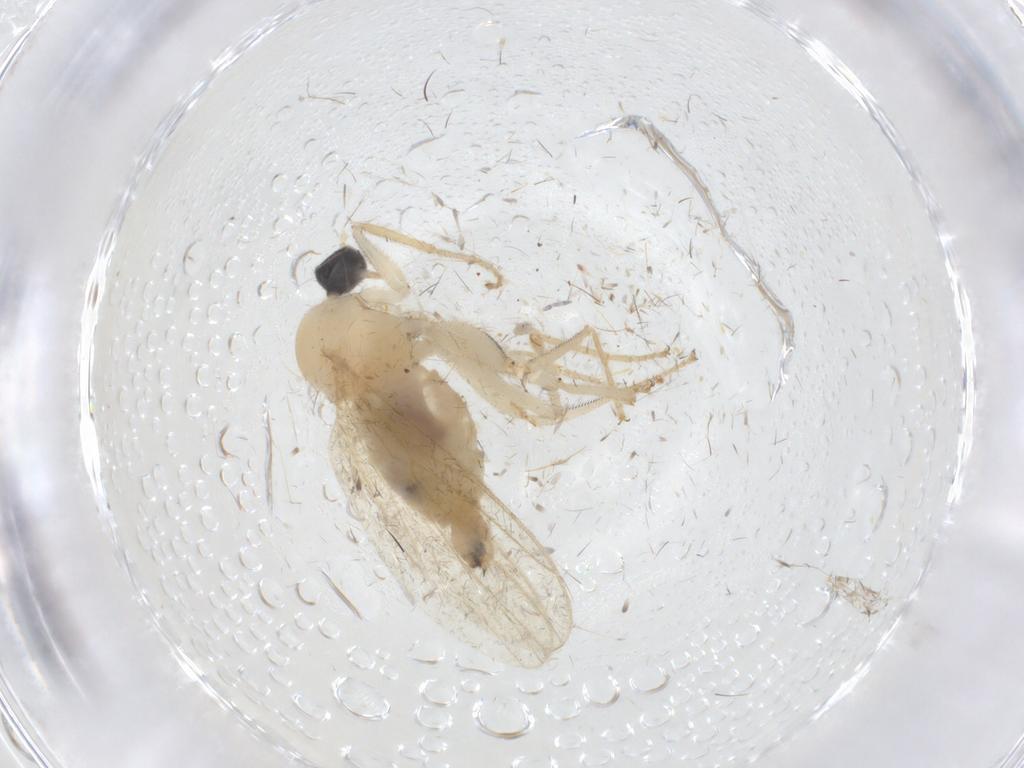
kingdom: Animalia
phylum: Arthropoda
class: Insecta
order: Diptera
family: Hybotidae
